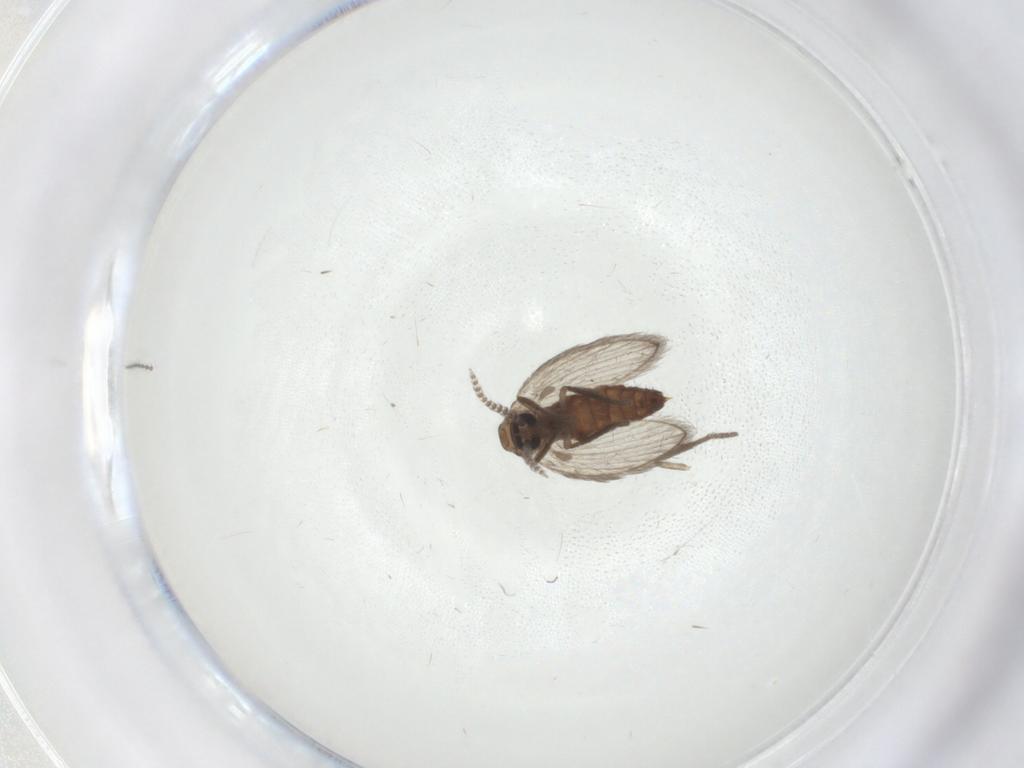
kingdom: Animalia
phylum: Arthropoda
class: Insecta
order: Diptera
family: Psychodidae
